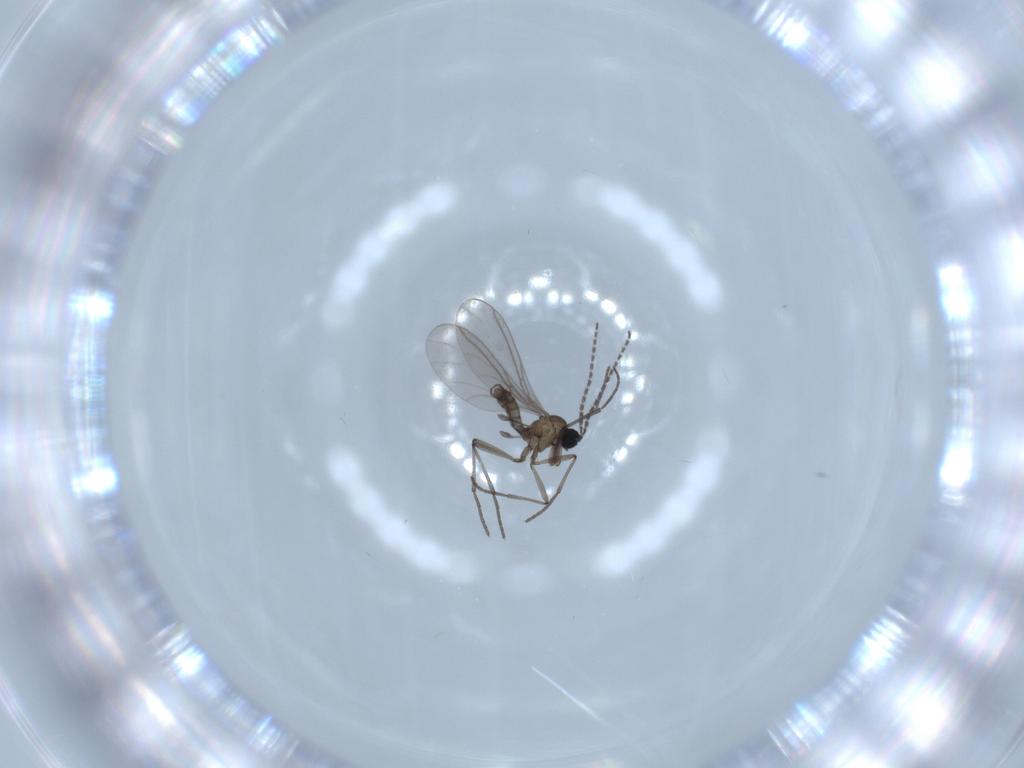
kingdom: Animalia
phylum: Arthropoda
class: Insecta
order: Diptera
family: Sciaridae
